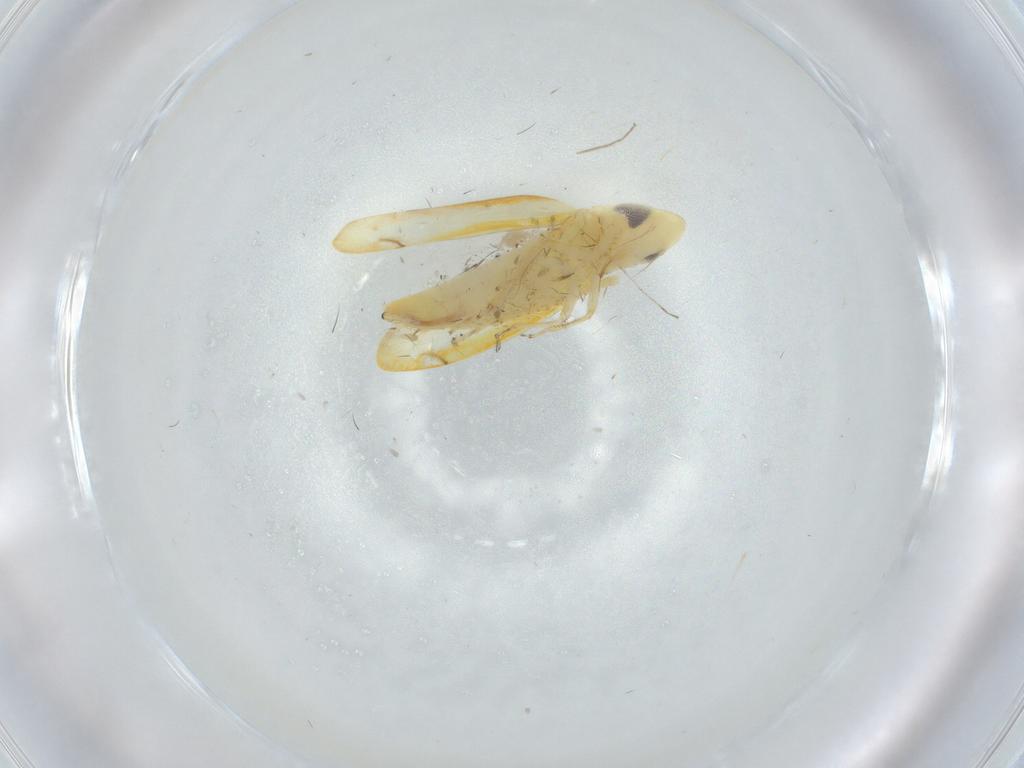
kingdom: Animalia
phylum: Arthropoda
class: Insecta
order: Hemiptera
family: Cicadellidae
